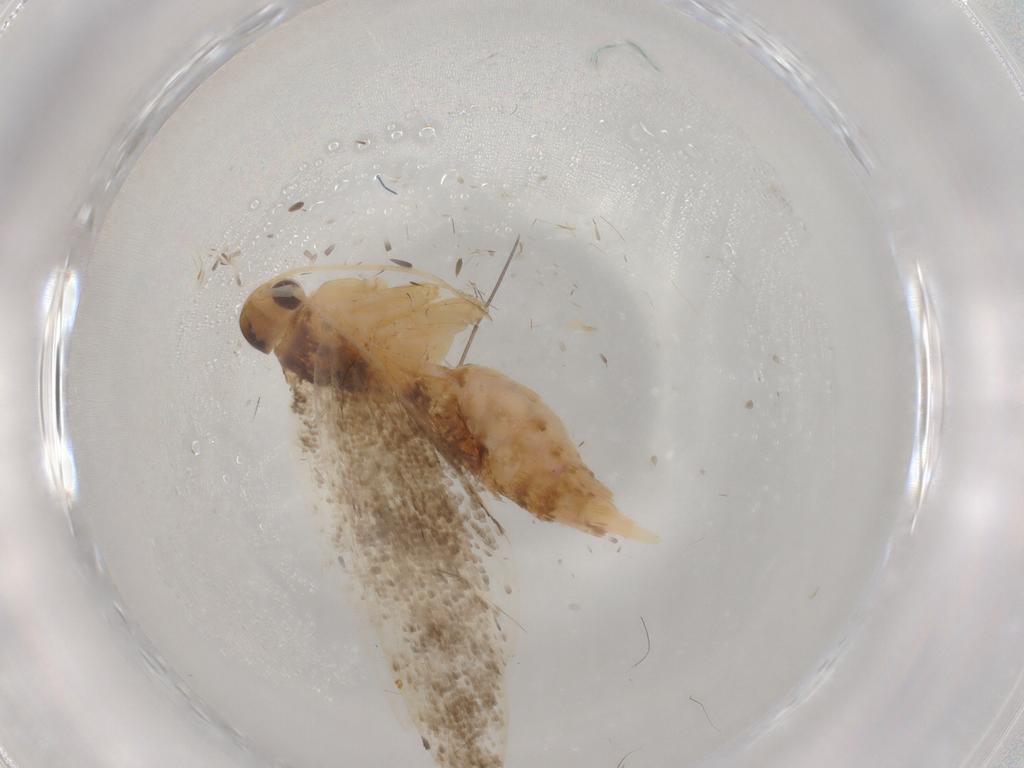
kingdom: Animalia
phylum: Arthropoda
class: Insecta
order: Lepidoptera
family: Lecithoceridae
